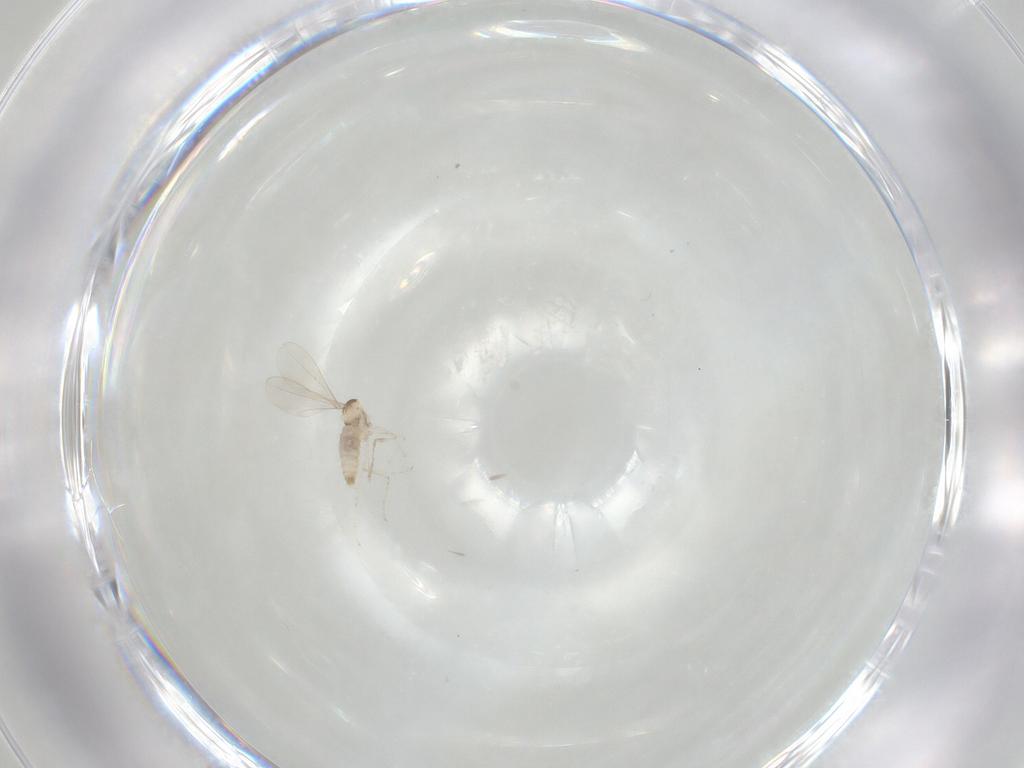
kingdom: Animalia
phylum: Arthropoda
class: Insecta
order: Diptera
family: Cecidomyiidae
